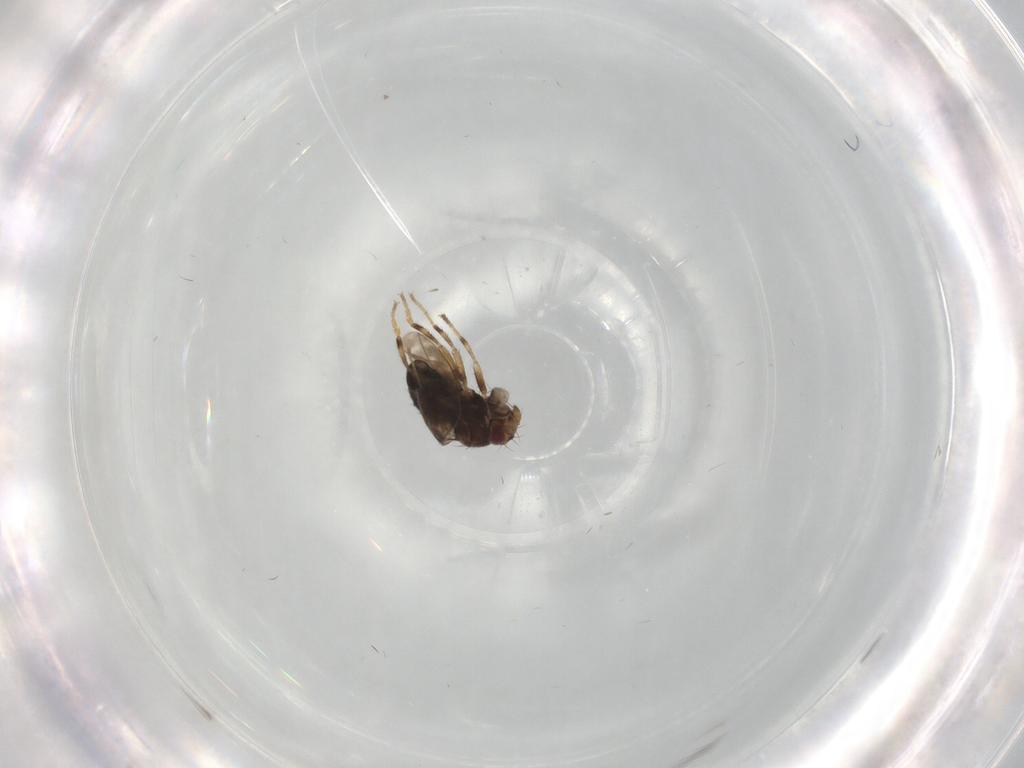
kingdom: Animalia
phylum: Arthropoda
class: Insecta
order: Diptera
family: Sphaeroceridae
